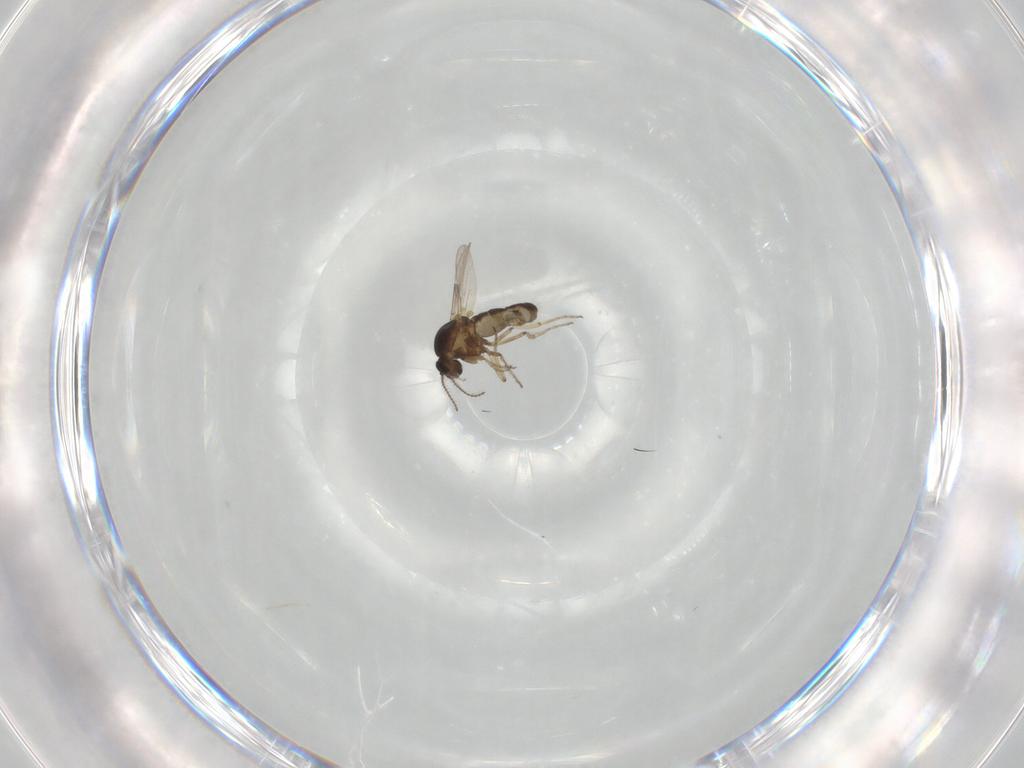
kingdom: Animalia
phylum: Arthropoda
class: Insecta
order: Diptera
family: Ceratopogonidae
